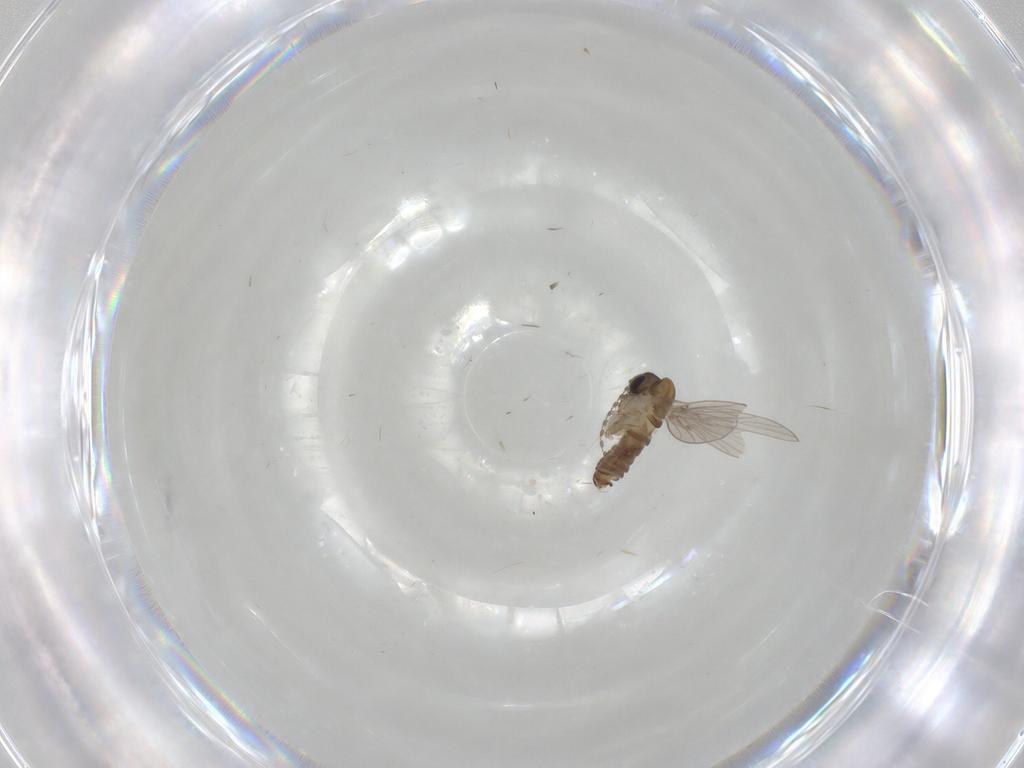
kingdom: Animalia
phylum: Arthropoda
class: Insecta
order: Diptera
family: Psychodidae
